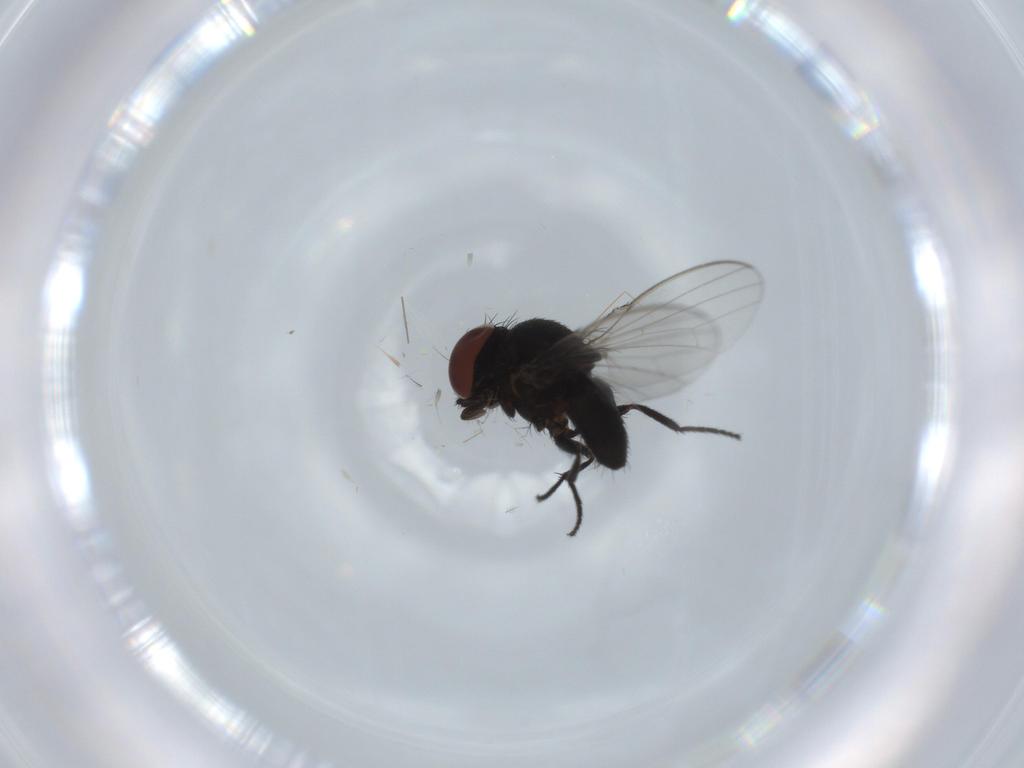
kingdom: Animalia
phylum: Arthropoda
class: Insecta
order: Diptera
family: Milichiidae
